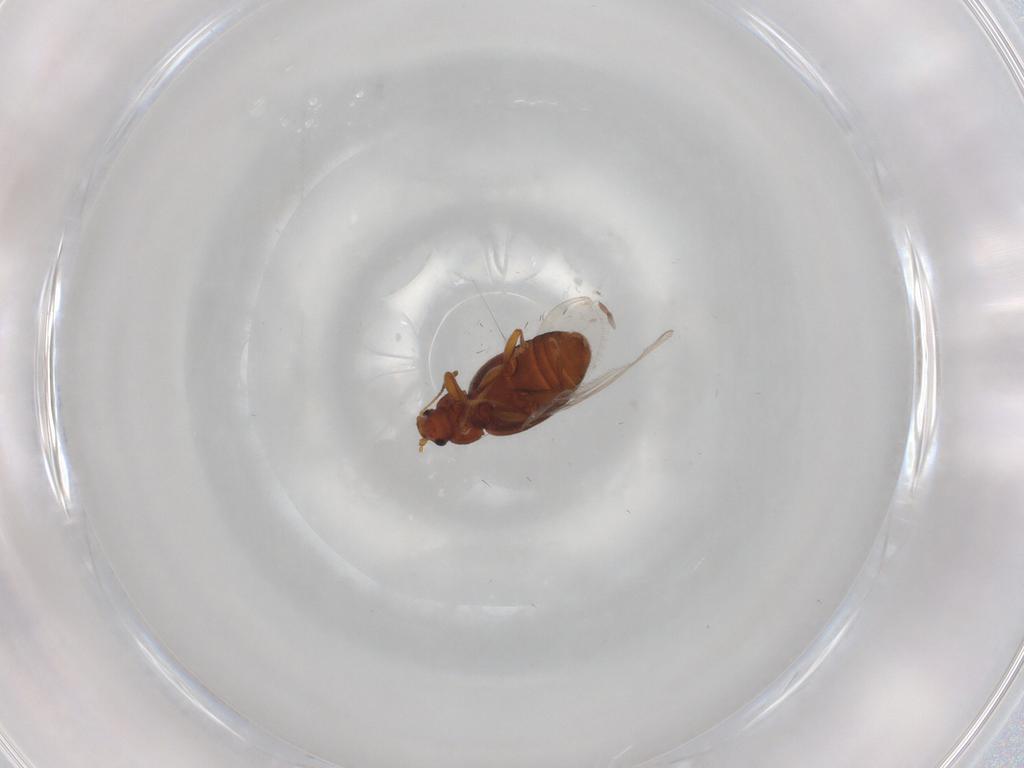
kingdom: Animalia
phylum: Arthropoda
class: Insecta
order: Coleoptera
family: Latridiidae
